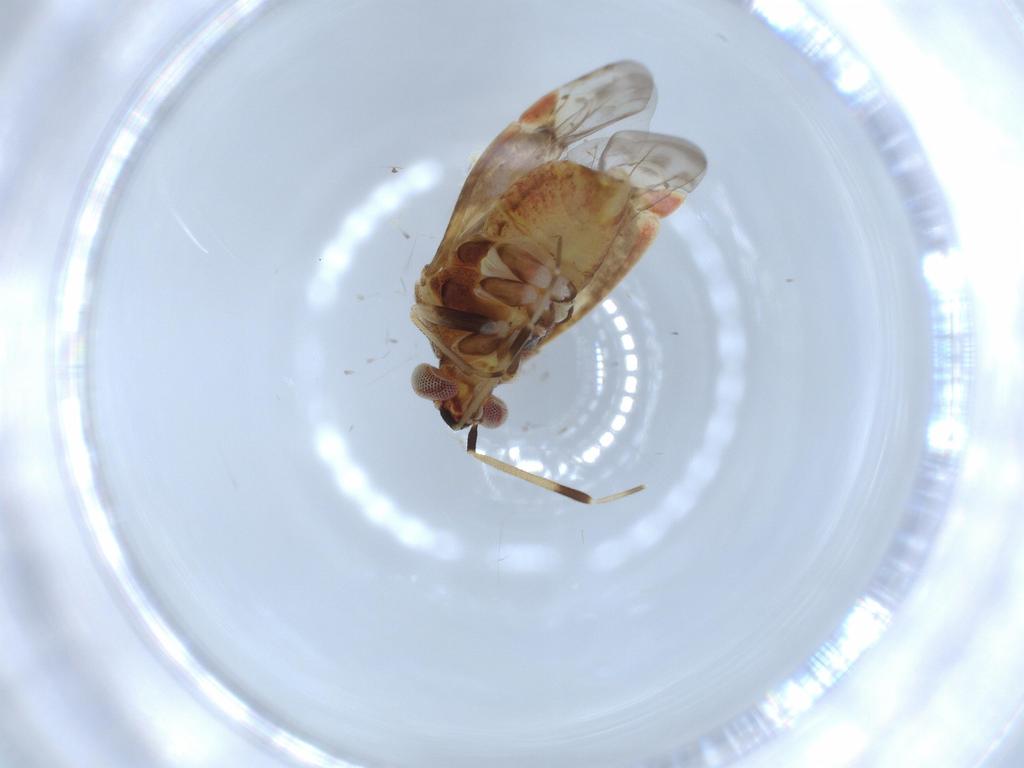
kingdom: Animalia
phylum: Arthropoda
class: Insecta
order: Hemiptera
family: Miridae
